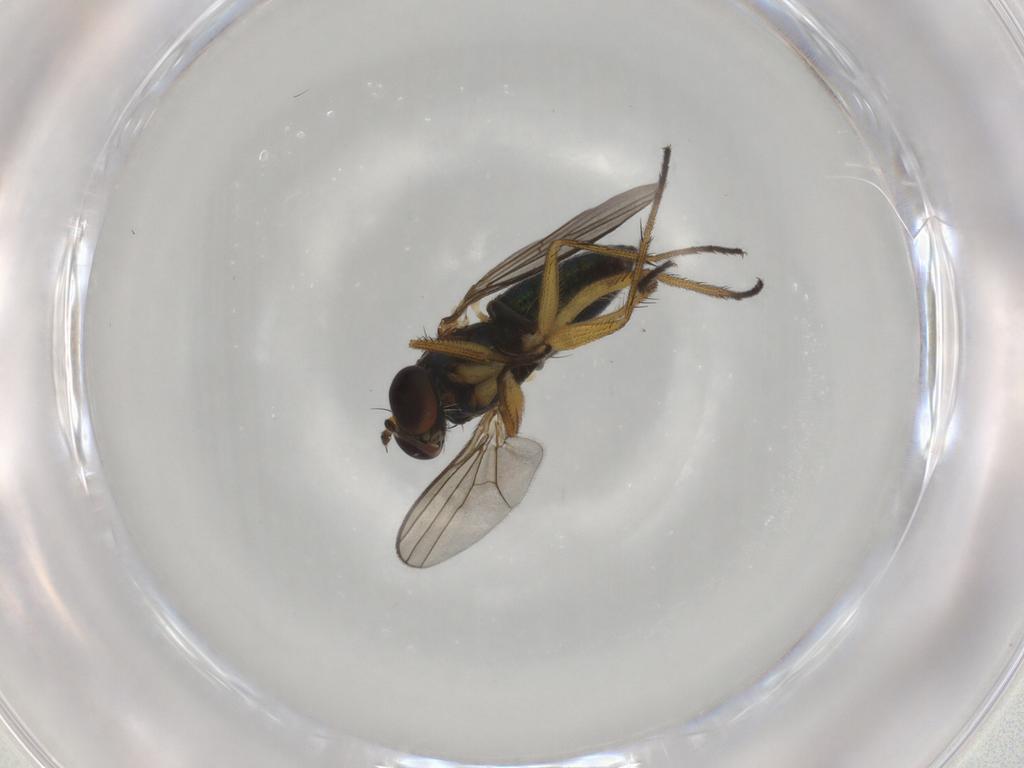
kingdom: Animalia
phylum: Arthropoda
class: Insecta
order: Diptera
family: Dolichopodidae
